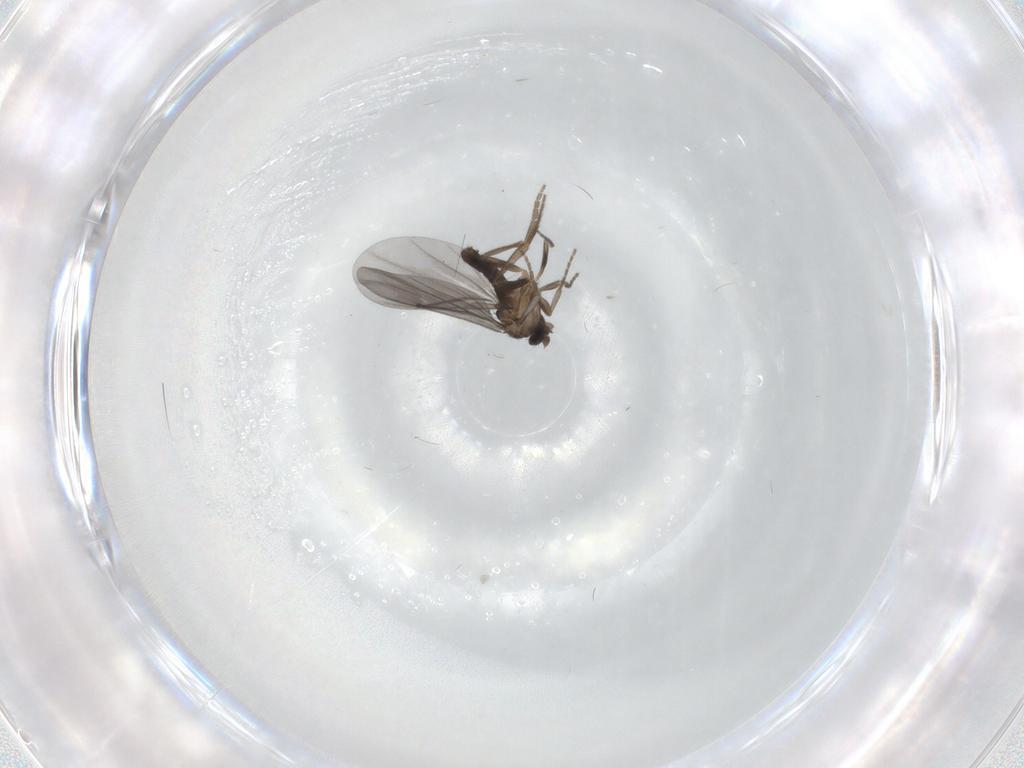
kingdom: Animalia
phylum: Arthropoda
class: Insecta
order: Diptera
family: Phoridae
